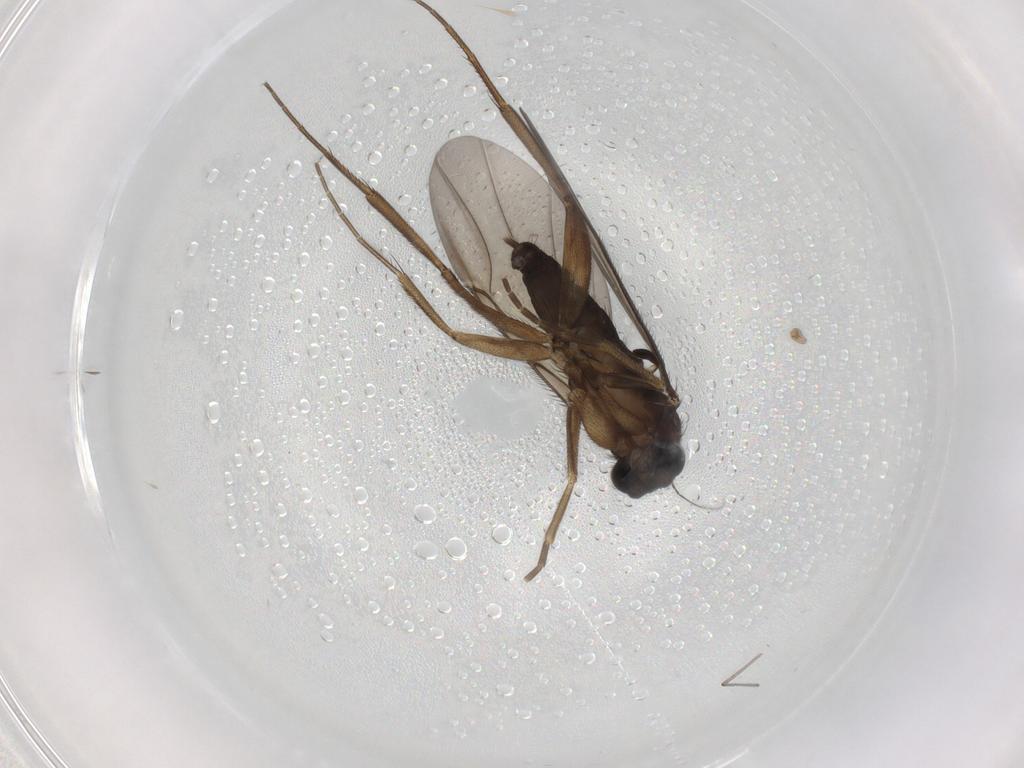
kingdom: Animalia
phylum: Arthropoda
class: Insecta
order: Diptera
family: Phoridae
